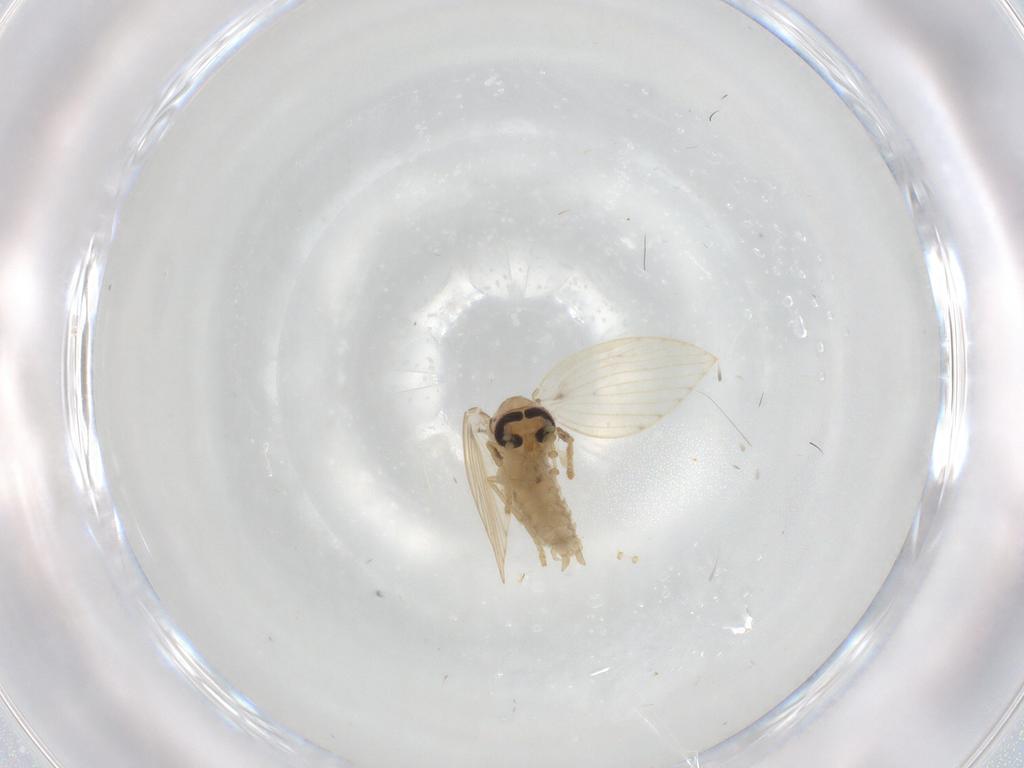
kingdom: Animalia
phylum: Arthropoda
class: Insecta
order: Diptera
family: Psychodidae
